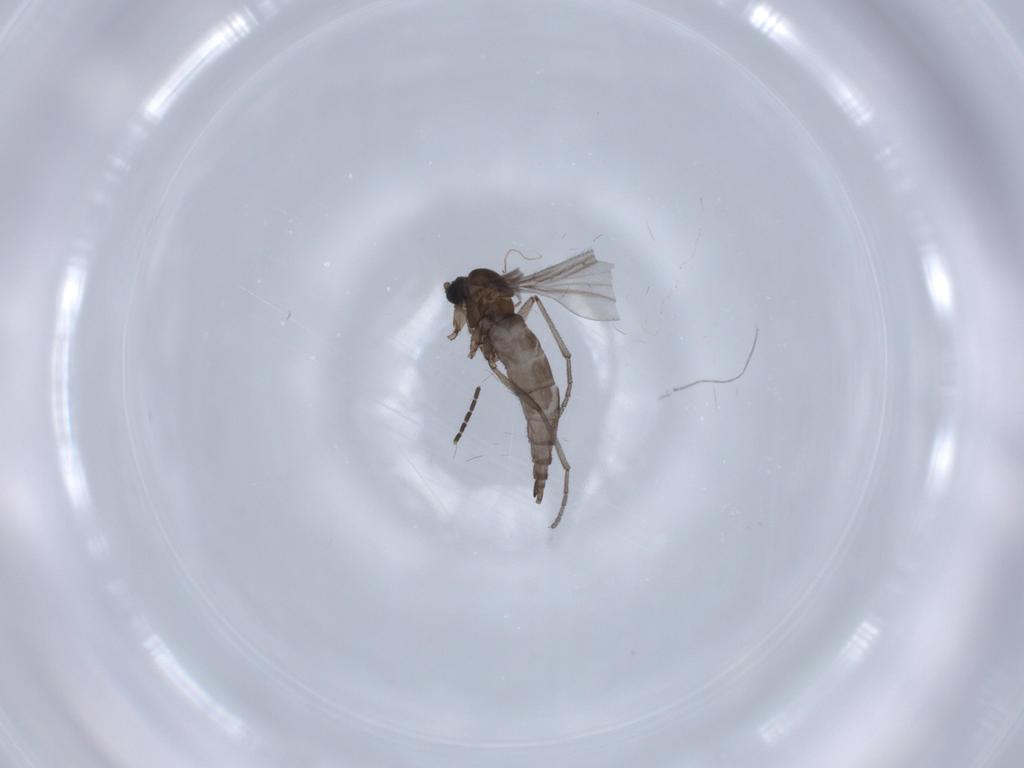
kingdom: Animalia
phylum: Arthropoda
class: Insecta
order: Diptera
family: Sciaridae
